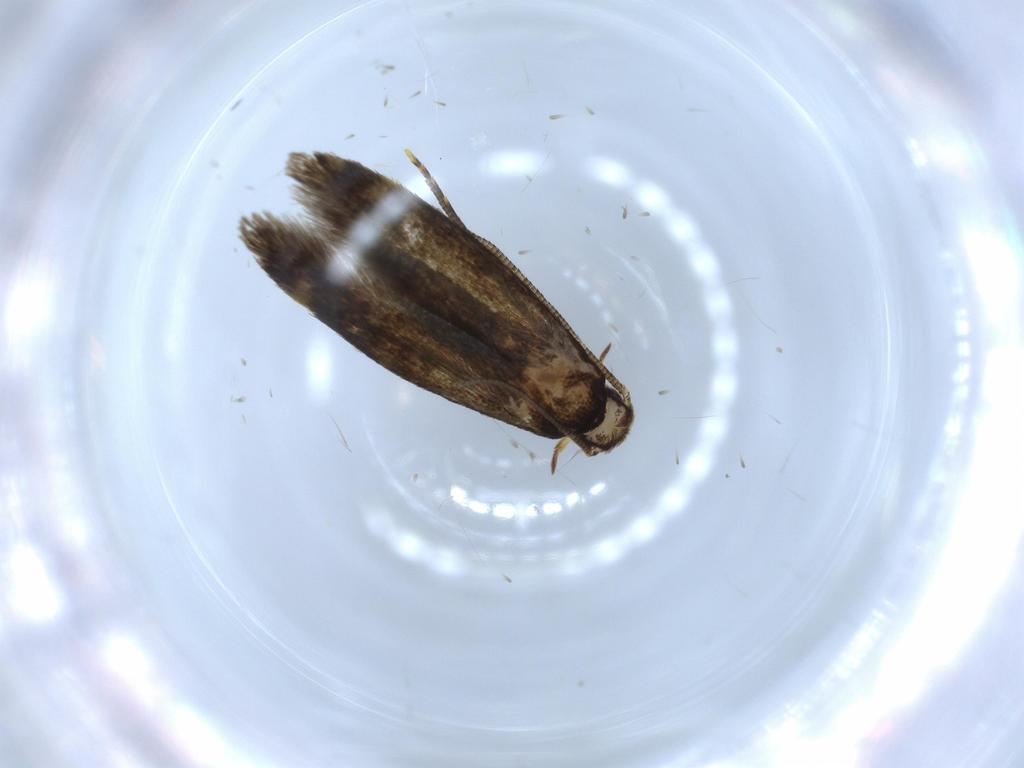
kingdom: Animalia
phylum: Arthropoda
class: Insecta
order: Lepidoptera
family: Tineidae
